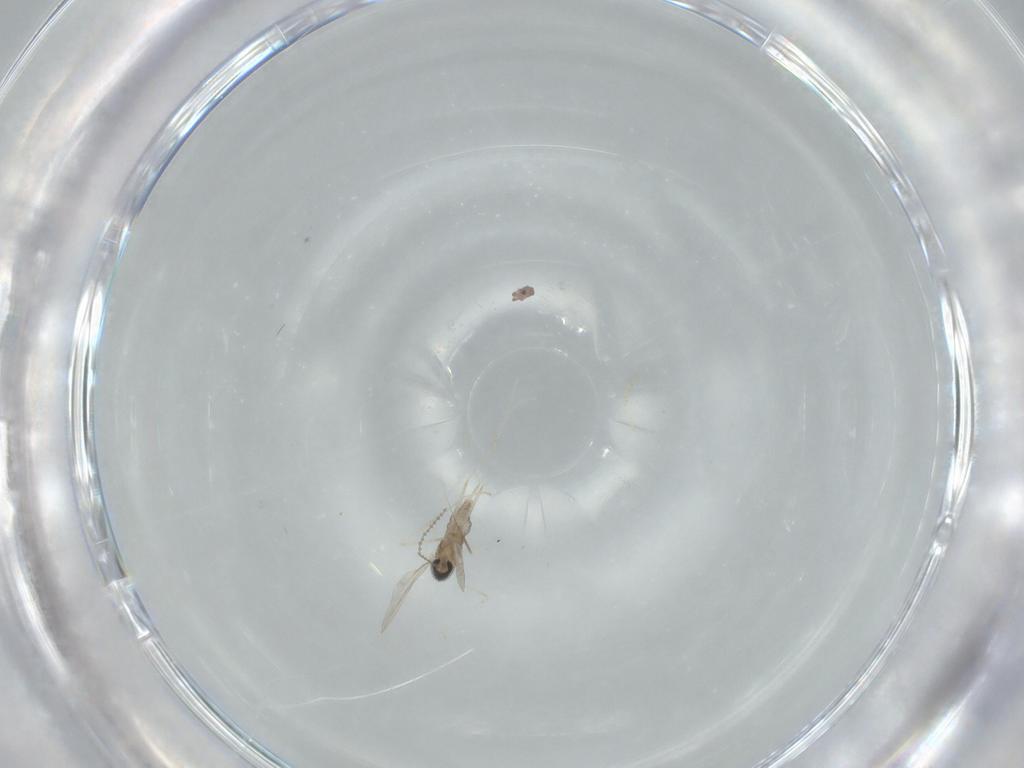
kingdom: Animalia
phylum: Arthropoda
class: Insecta
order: Diptera
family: Cecidomyiidae
